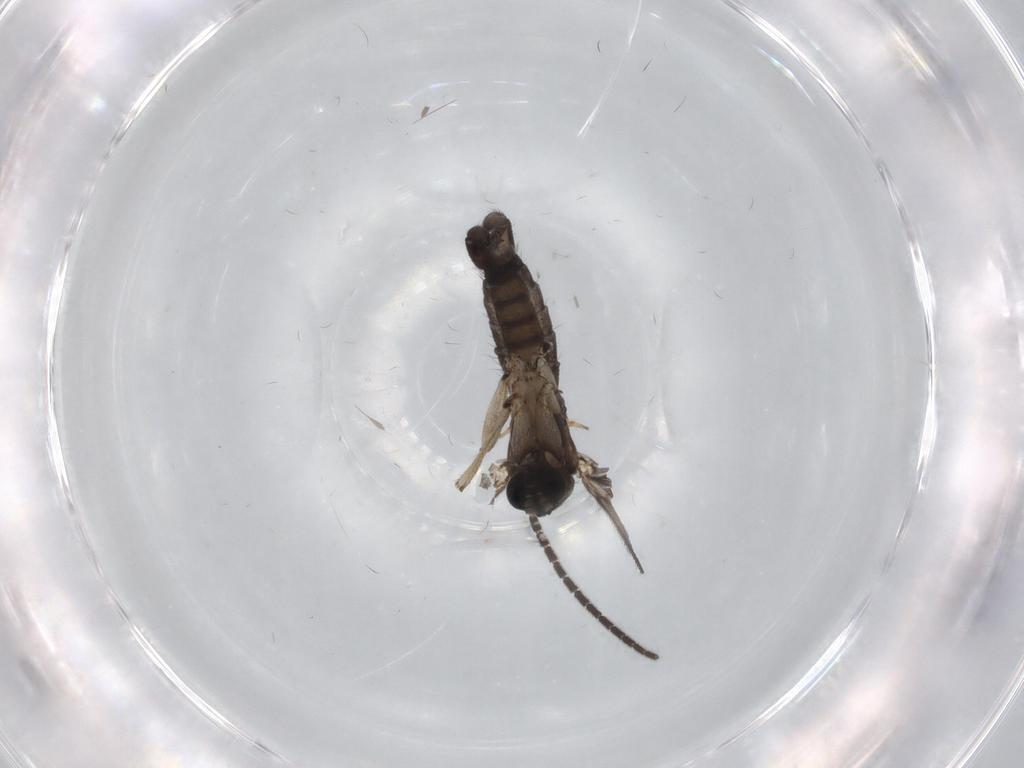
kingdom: Animalia
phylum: Arthropoda
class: Insecta
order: Diptera
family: Sciaridae
